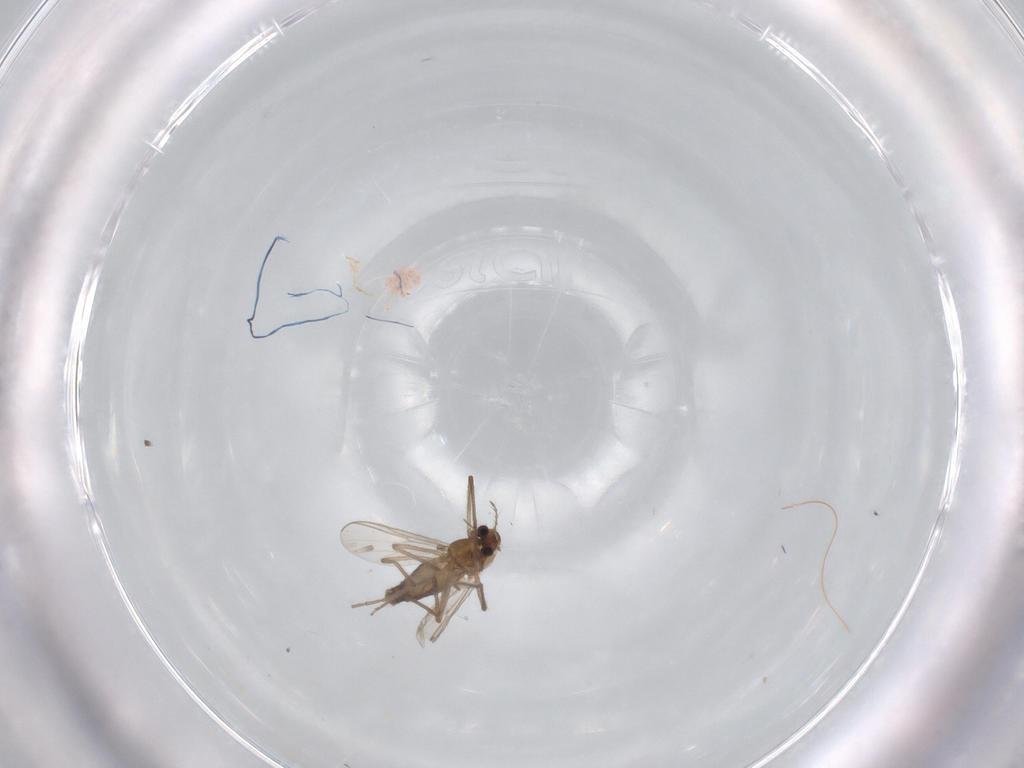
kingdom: Animalia
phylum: Arthropoda
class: Insecta
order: Diptera
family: Chironomidae
